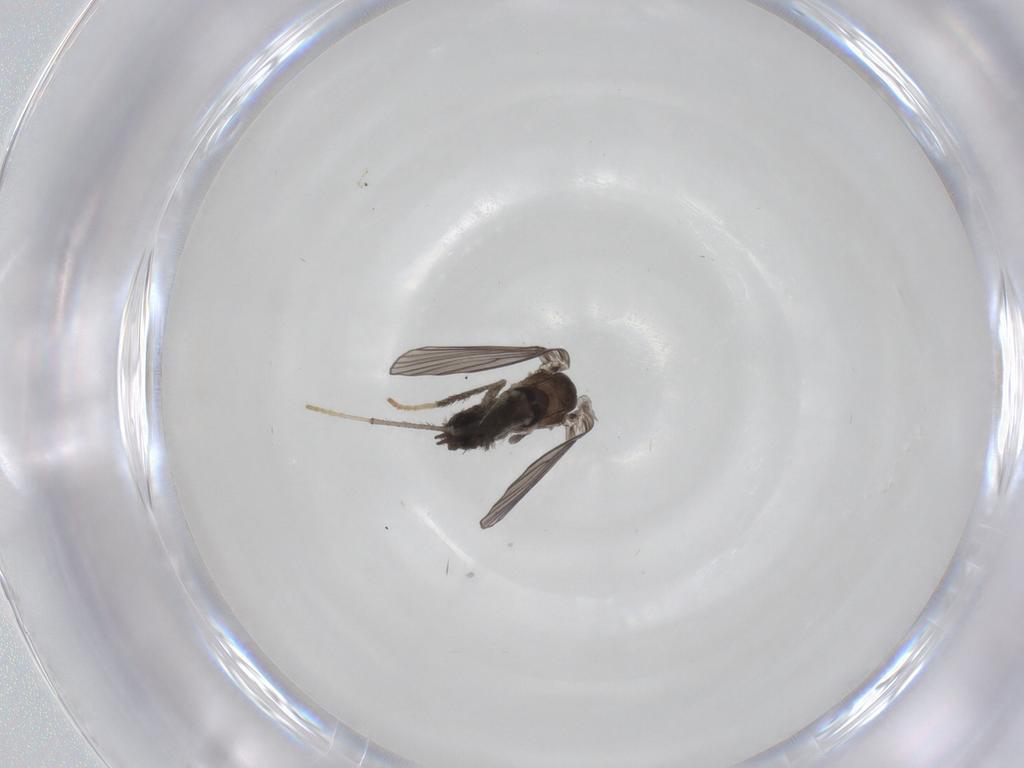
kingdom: Animalia
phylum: Arthropoda
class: Insecta
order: Diptera
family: Psychodidae
